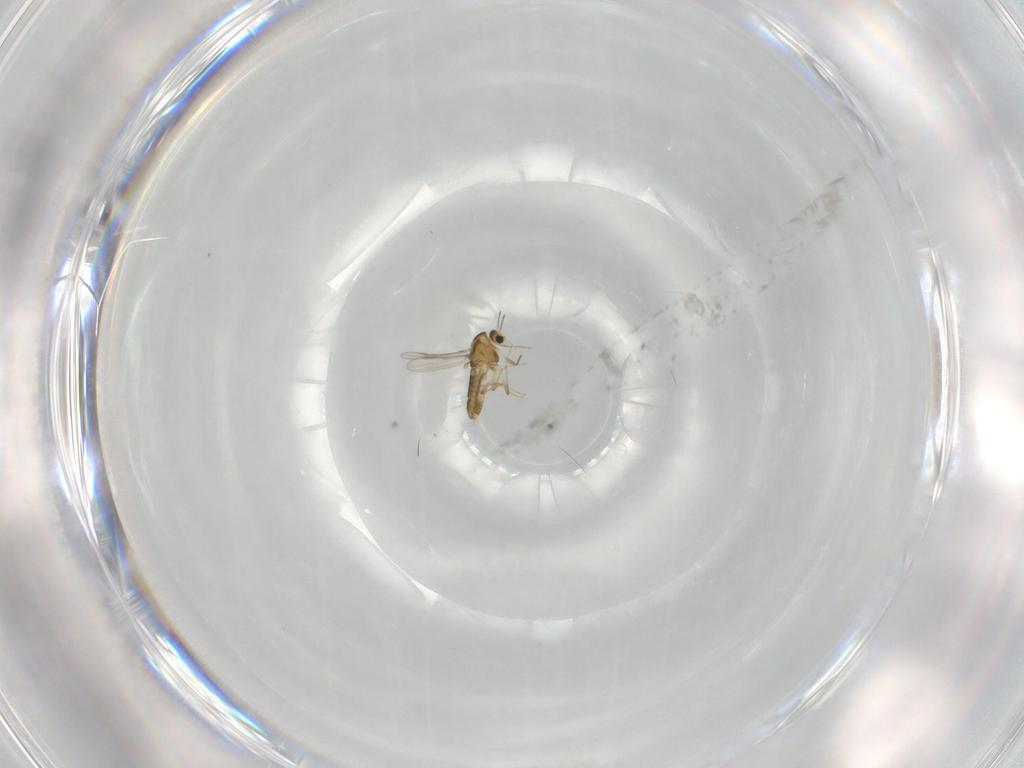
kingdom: Animalia
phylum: Arthropoda
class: Insecta
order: Diptera
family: Chironomidae
